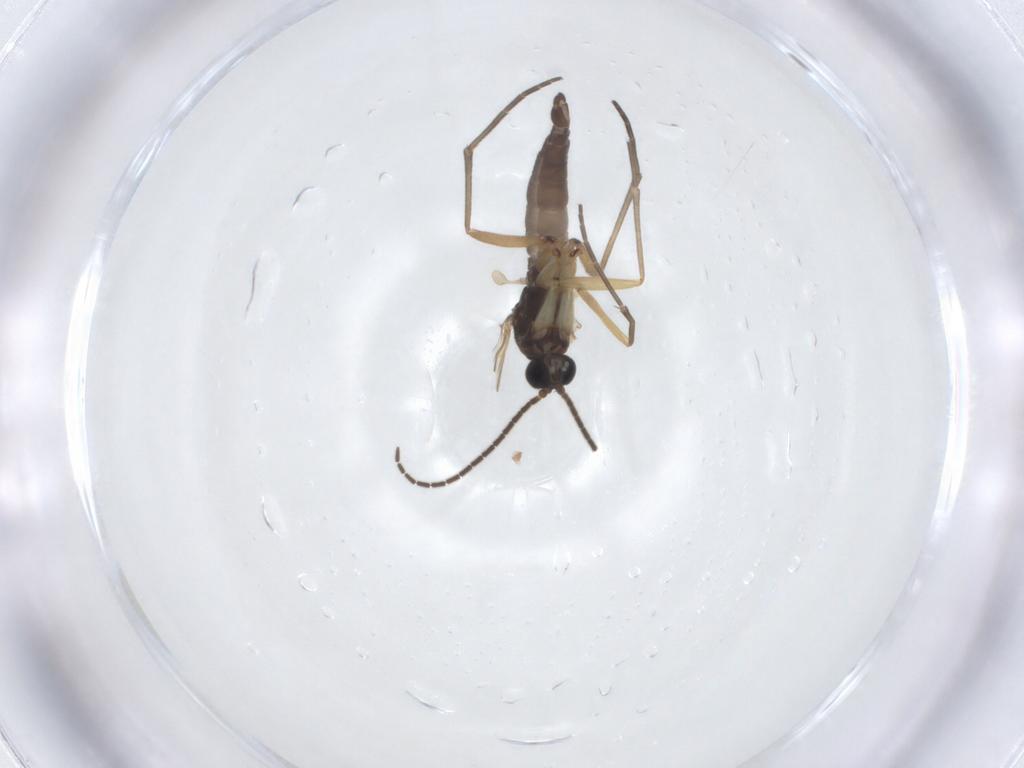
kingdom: Animalia
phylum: Arthropoda
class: Insecta
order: Diptera
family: Sciaridae
